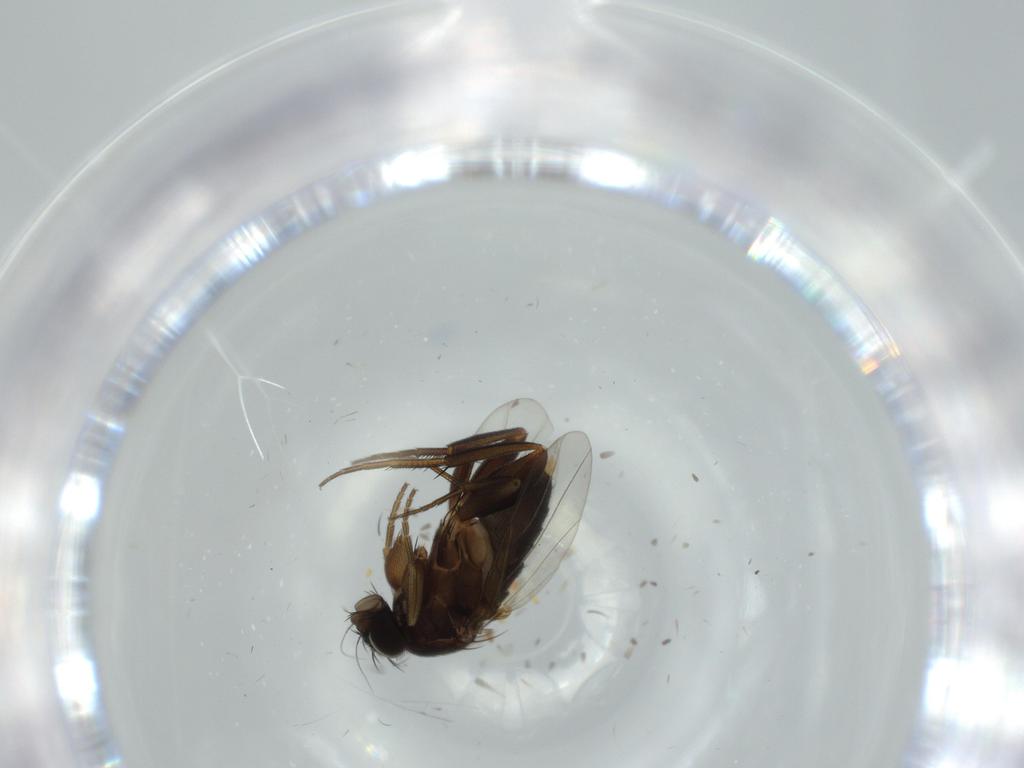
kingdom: Animalia
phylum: Arthropoda
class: Insecta
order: Diptera
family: Phoridae
